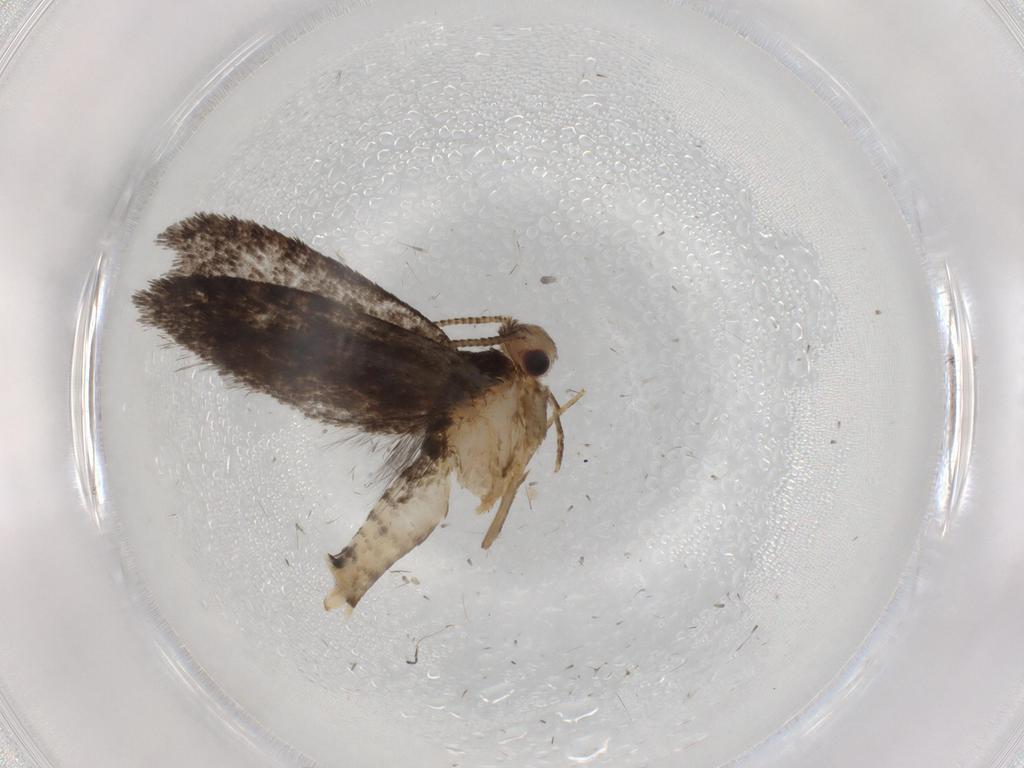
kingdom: Animalia
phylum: Arthropoda
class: Insecta
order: Lepidoptera
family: Tineidae
